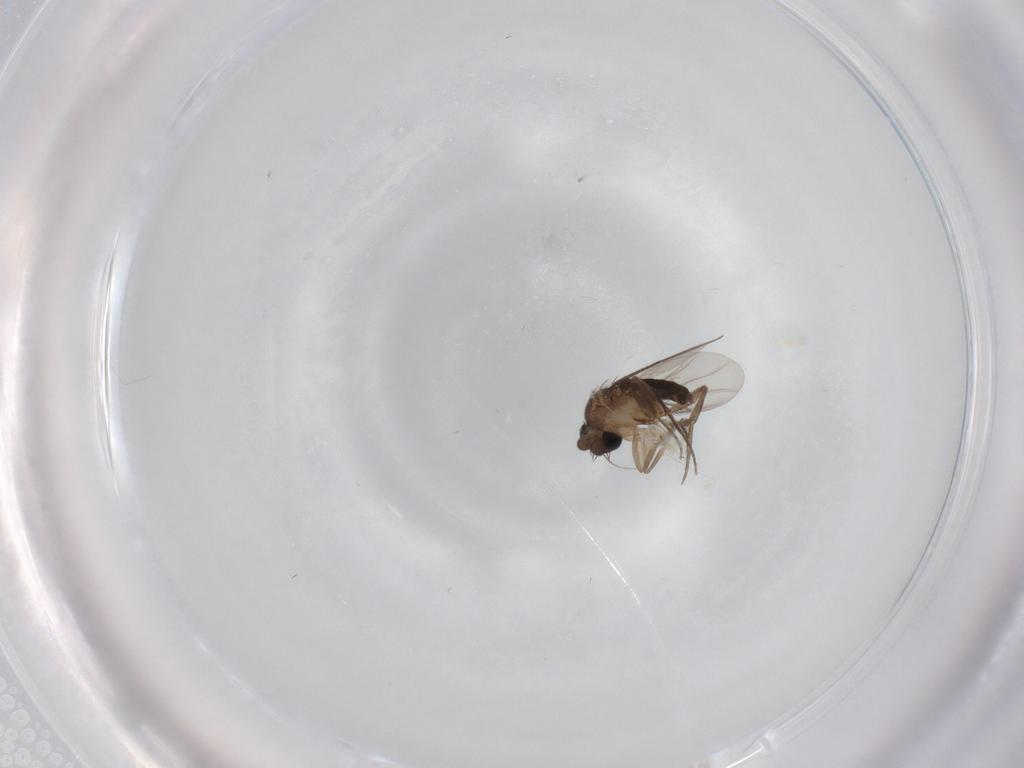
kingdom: Animalia
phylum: Arthropoda
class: Insecta
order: Diptera
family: Phoridae
